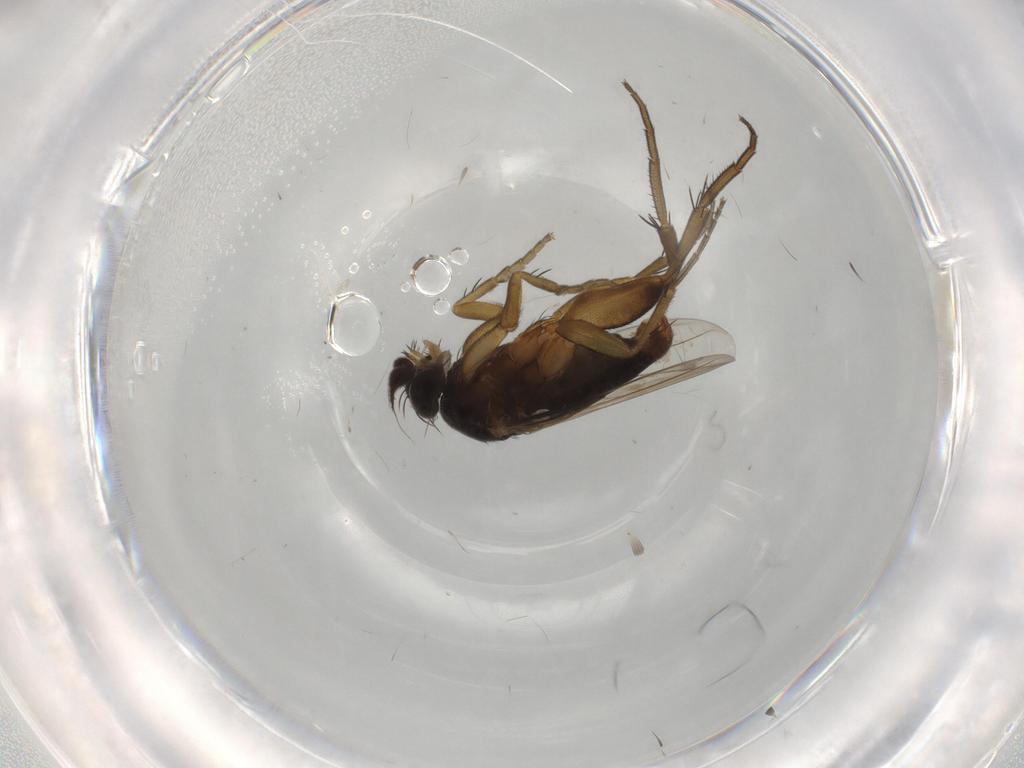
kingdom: Animalia
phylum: Arthropoda
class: Insecta
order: Diptera
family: Phoridae
